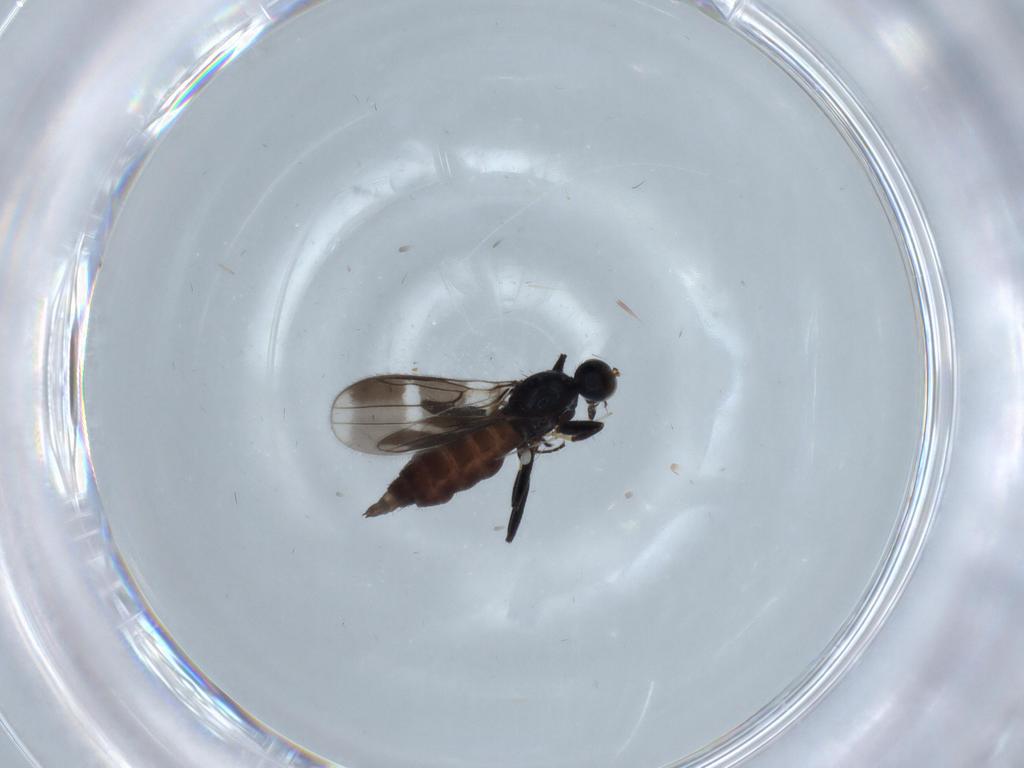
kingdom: Animalia
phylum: Arthropoda
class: Insecta
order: Diptera
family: Hybotidae
